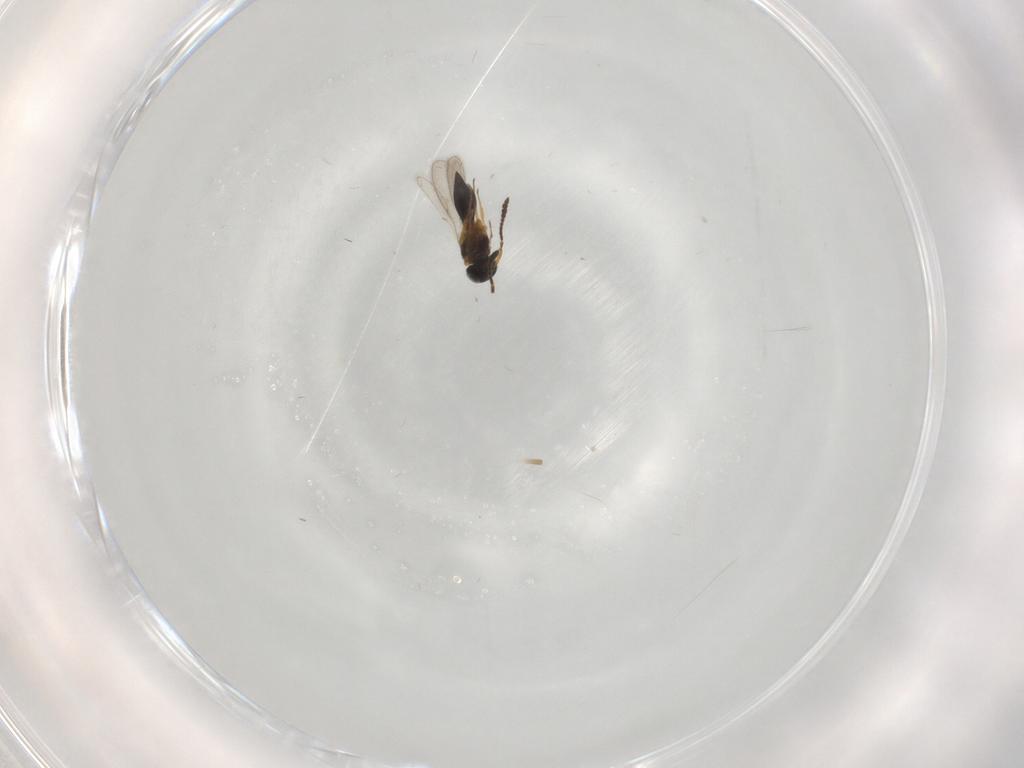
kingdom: Animalia
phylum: Arthropoda
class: Insecta
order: Hymenoptera
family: Scelionidae
